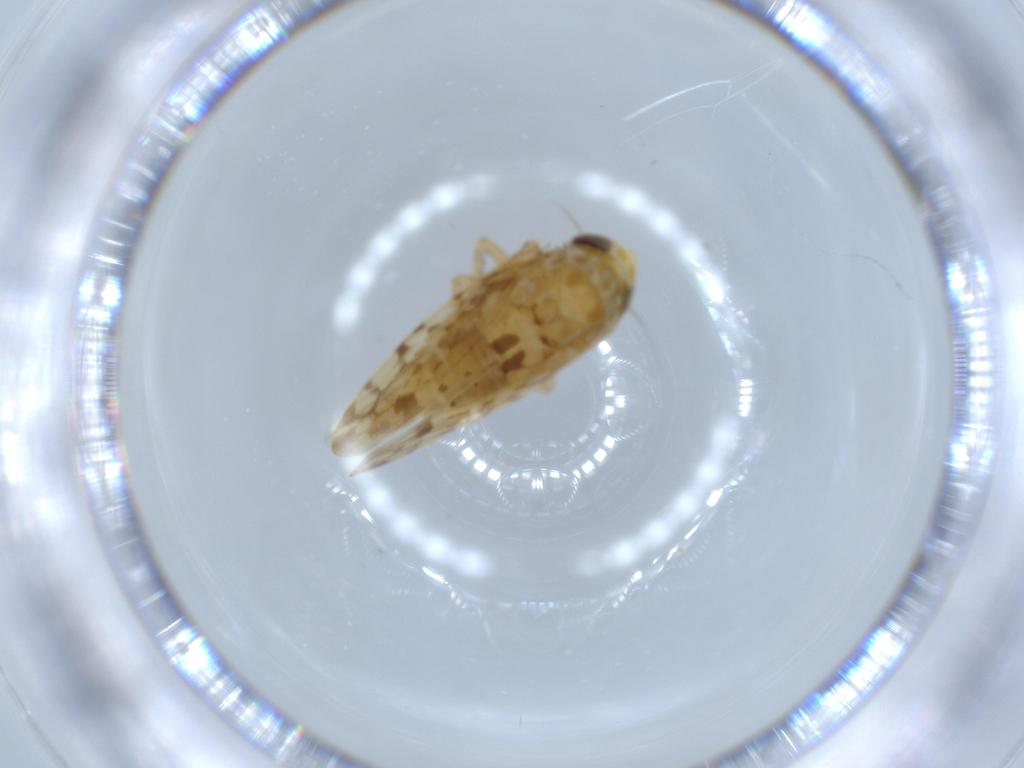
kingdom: Animalia
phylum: Arthropoda
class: Insecta
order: Hemiptera
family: Cicadellidae
